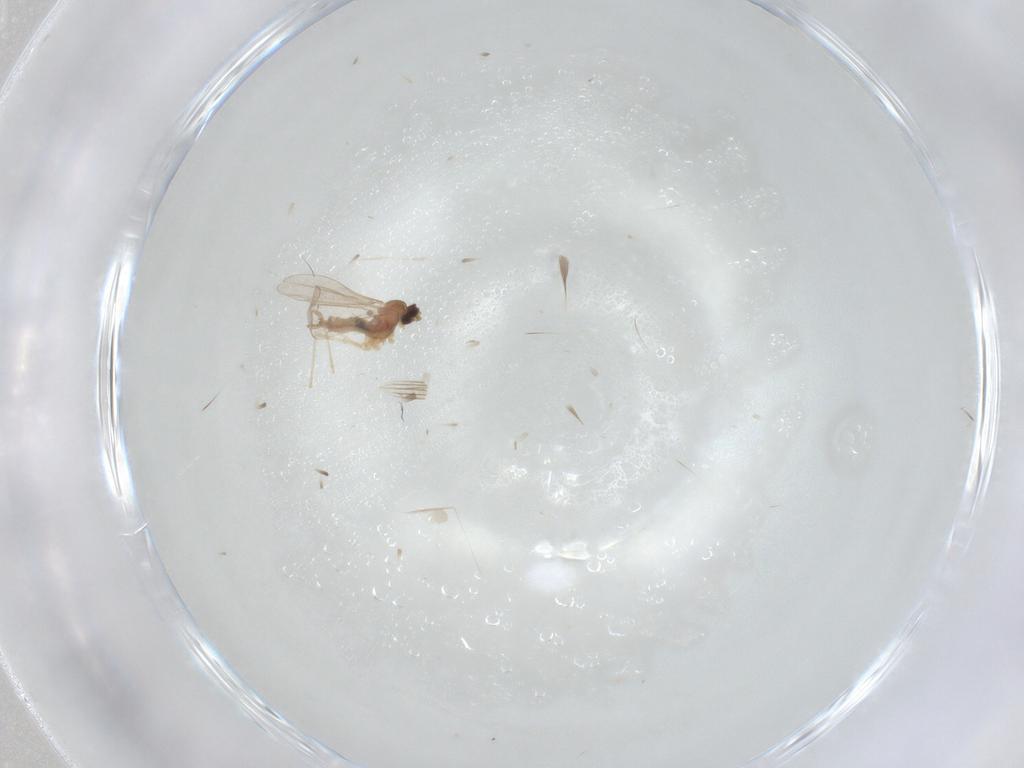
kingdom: Animalia
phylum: Arthropoda
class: Insecta
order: Diptera
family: Cecidomyiidae
